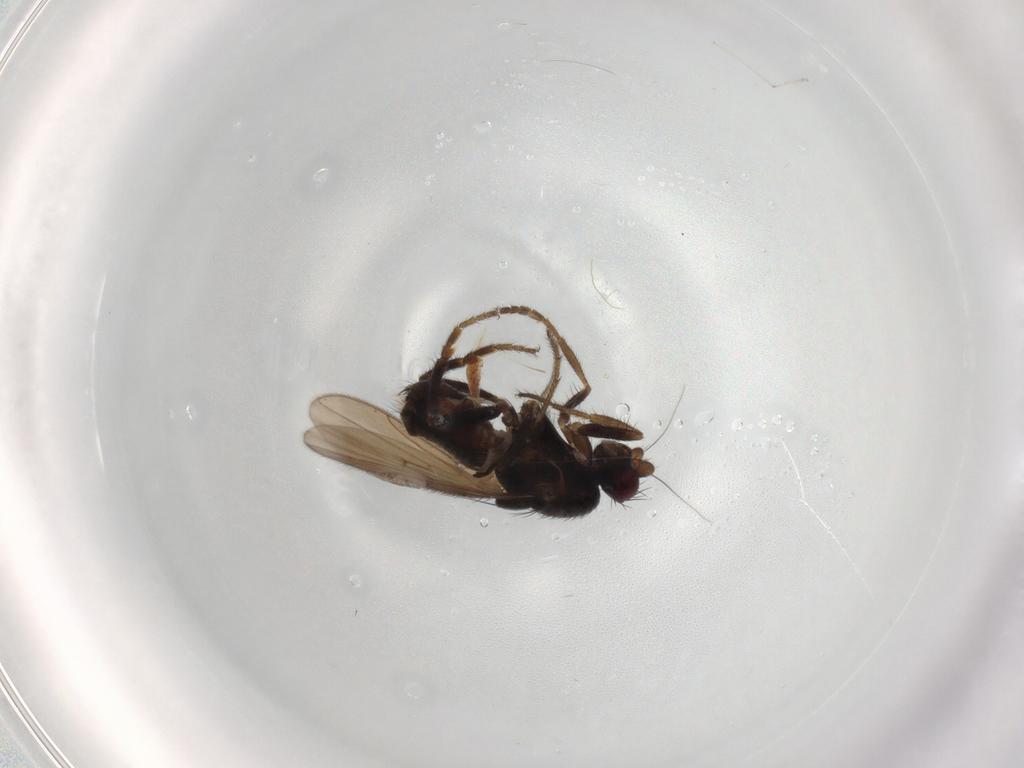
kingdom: Animalia
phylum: Arthropoda
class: Insecta
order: Diptera
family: Sphaeroceridae
